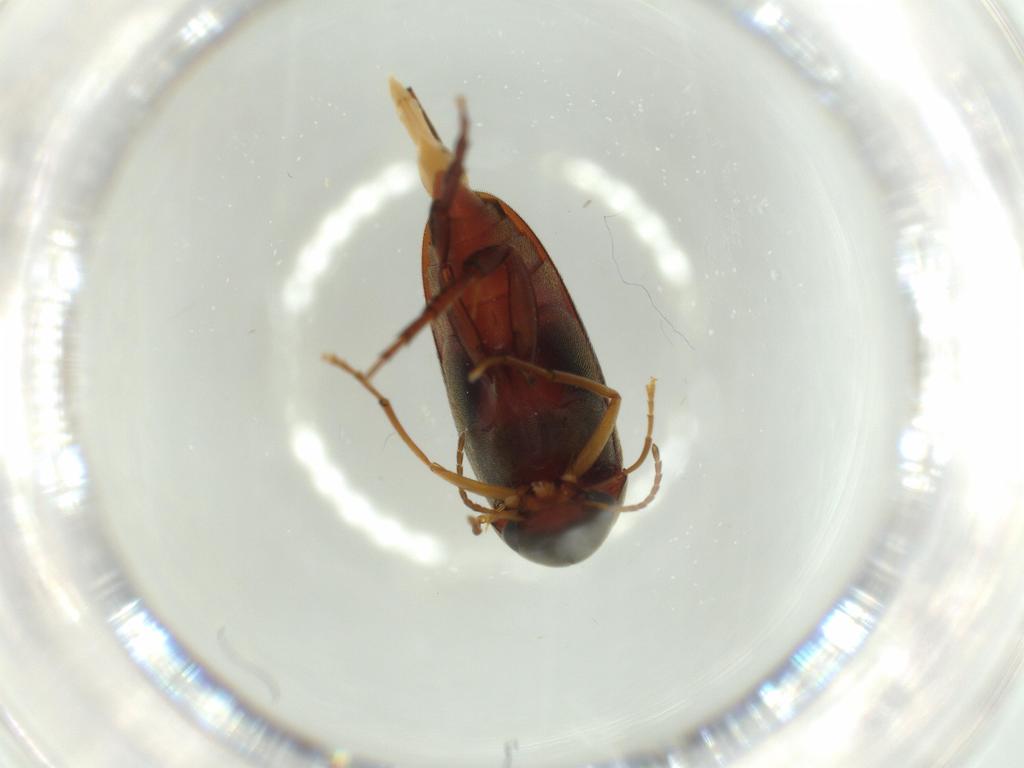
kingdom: Animalia
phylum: Arthropoda
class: Insecta
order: Coleoptera
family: Mordellidae
